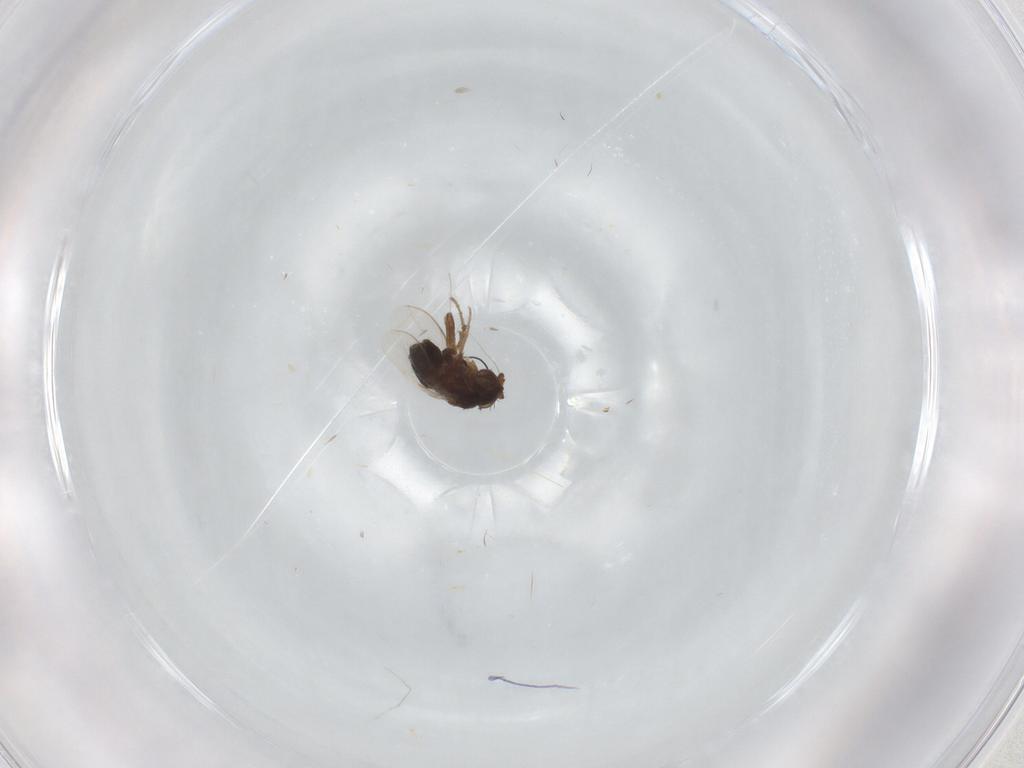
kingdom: Animalia
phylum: Arthropoda
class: Insecta
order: Diptera
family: Sphaeroceridae
